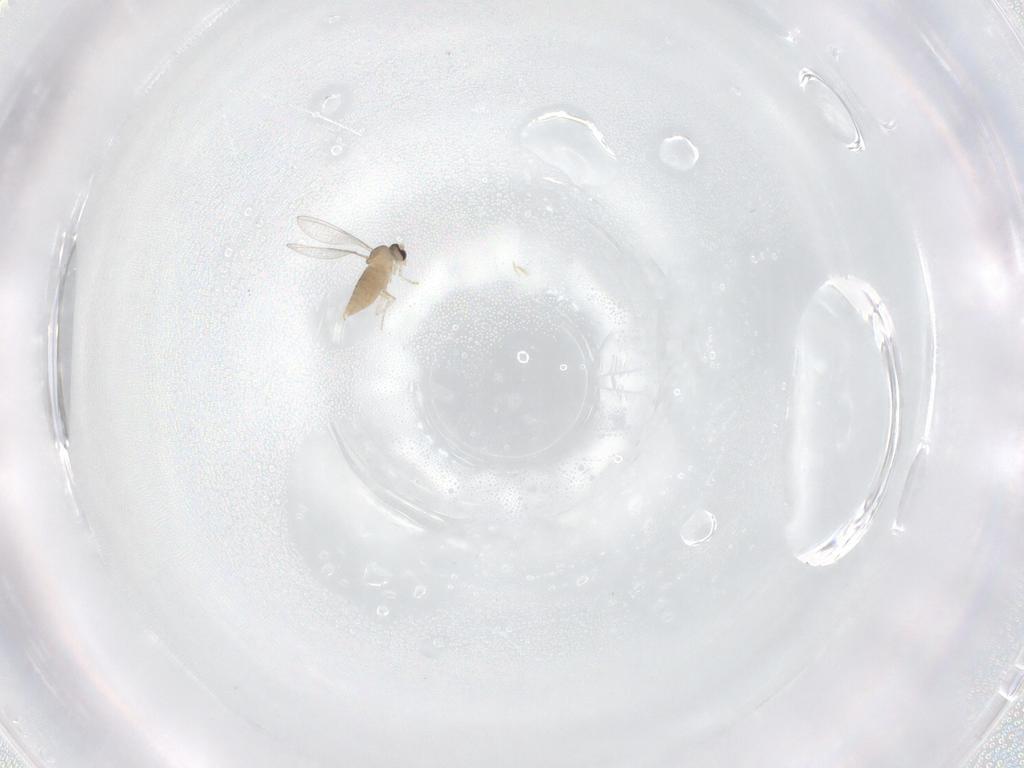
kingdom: Animalia
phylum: Arthropoda
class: Insecta
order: Diptera
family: Cecidomyiidae
